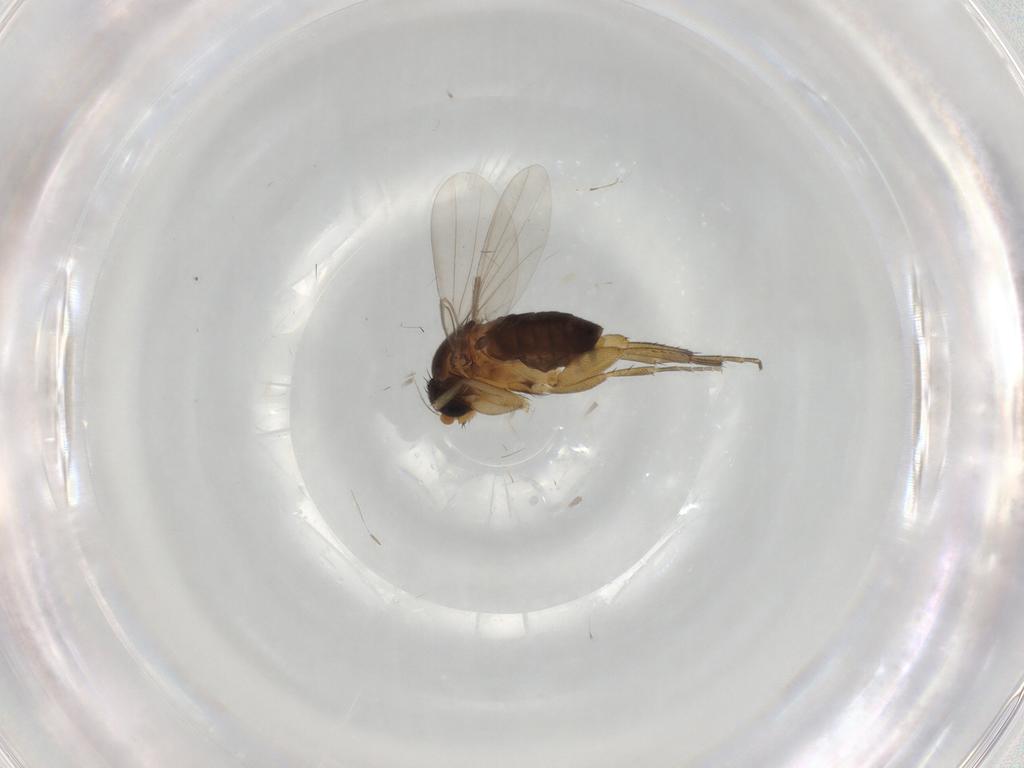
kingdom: Animalia
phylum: Arthropoda
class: Insecta
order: Diptera
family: Phoridae
